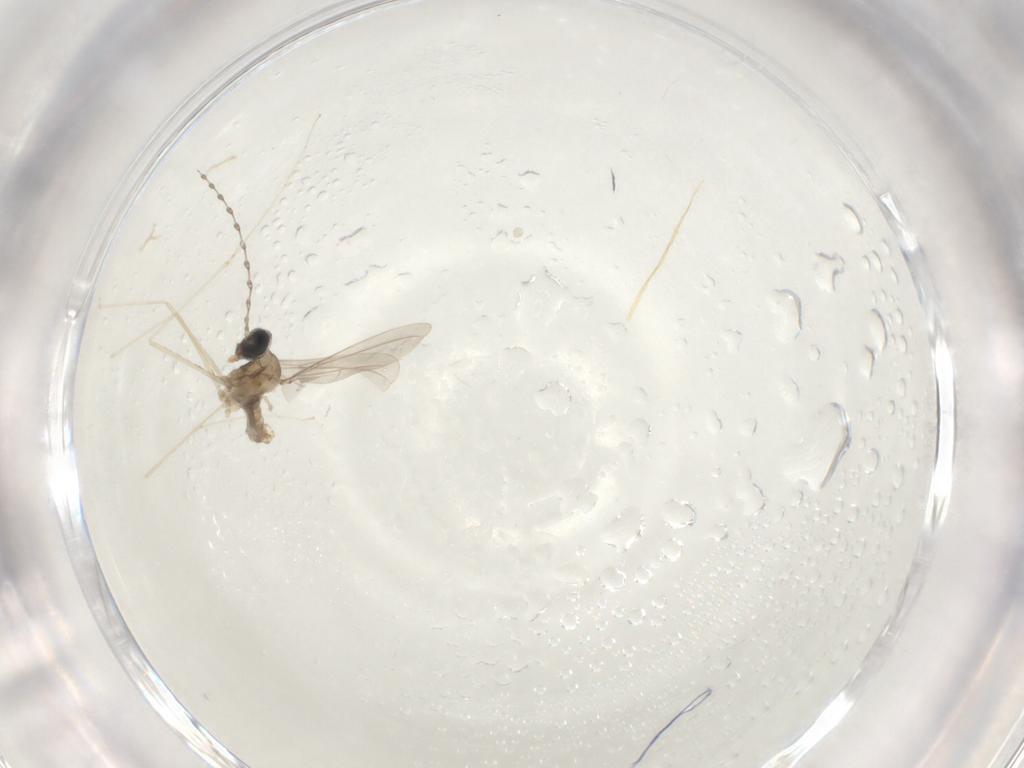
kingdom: Animalia
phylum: Arthropoda
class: Insecta
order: Diptera
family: Cecidomyiidae
